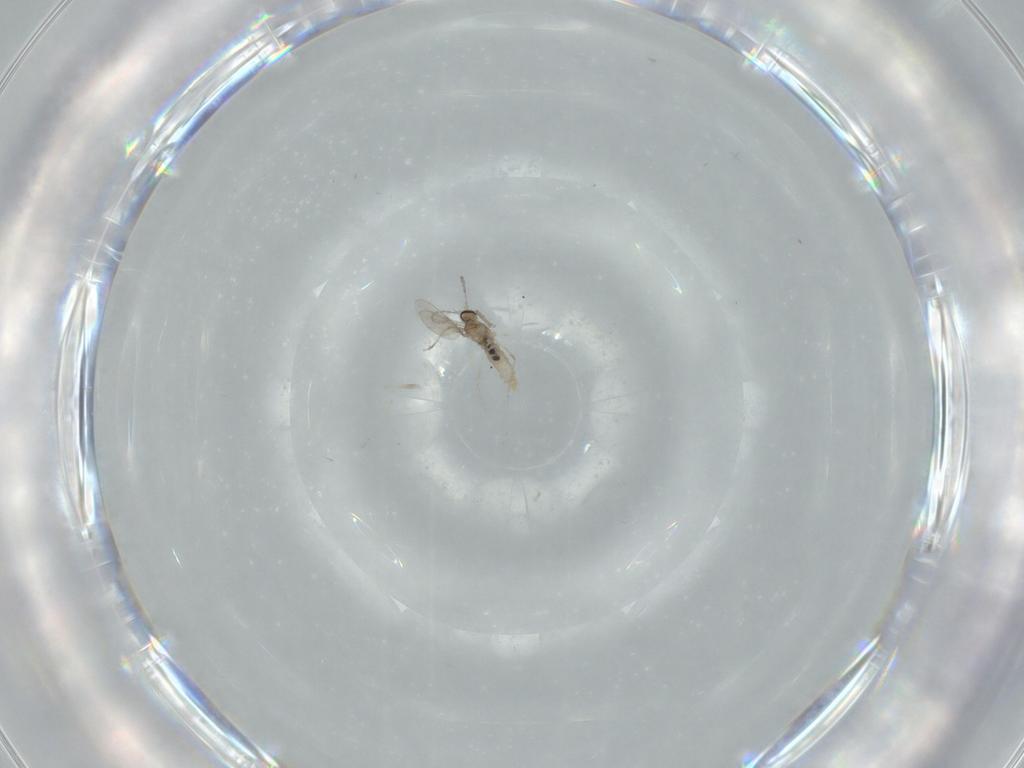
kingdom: Animalia
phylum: Arthropoda
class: Insecta
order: Diptera
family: Cecidomyiidae
